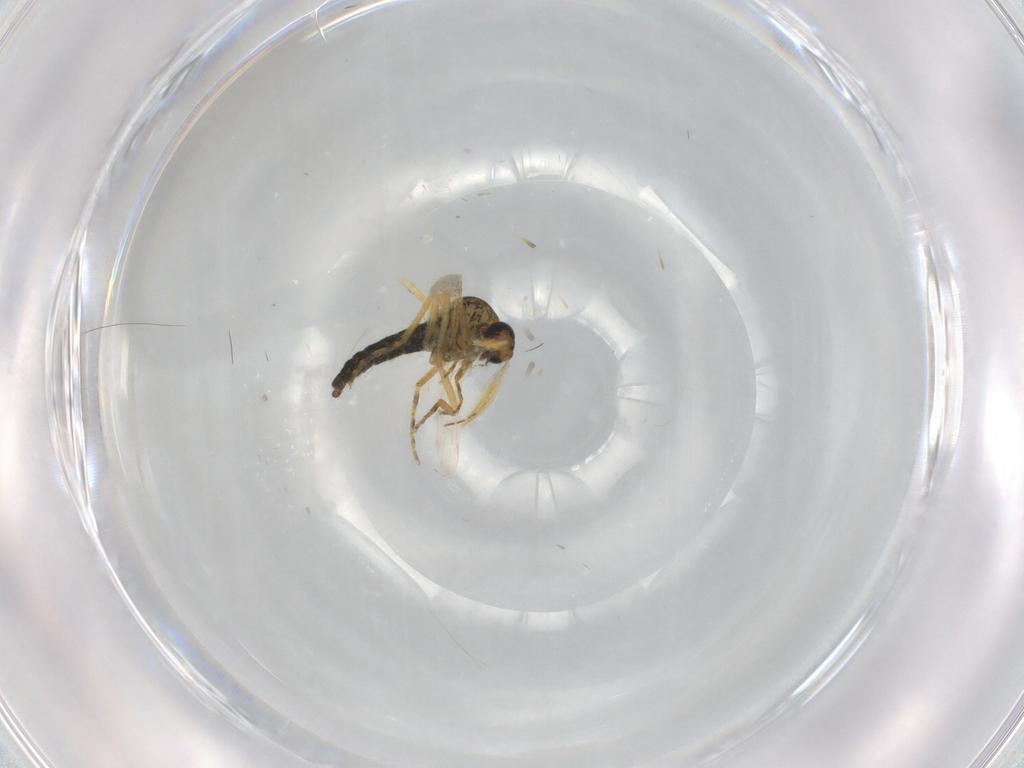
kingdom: Animalia
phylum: Arthropoda
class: Insecta
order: Diptera
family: Ceratopogonidae
